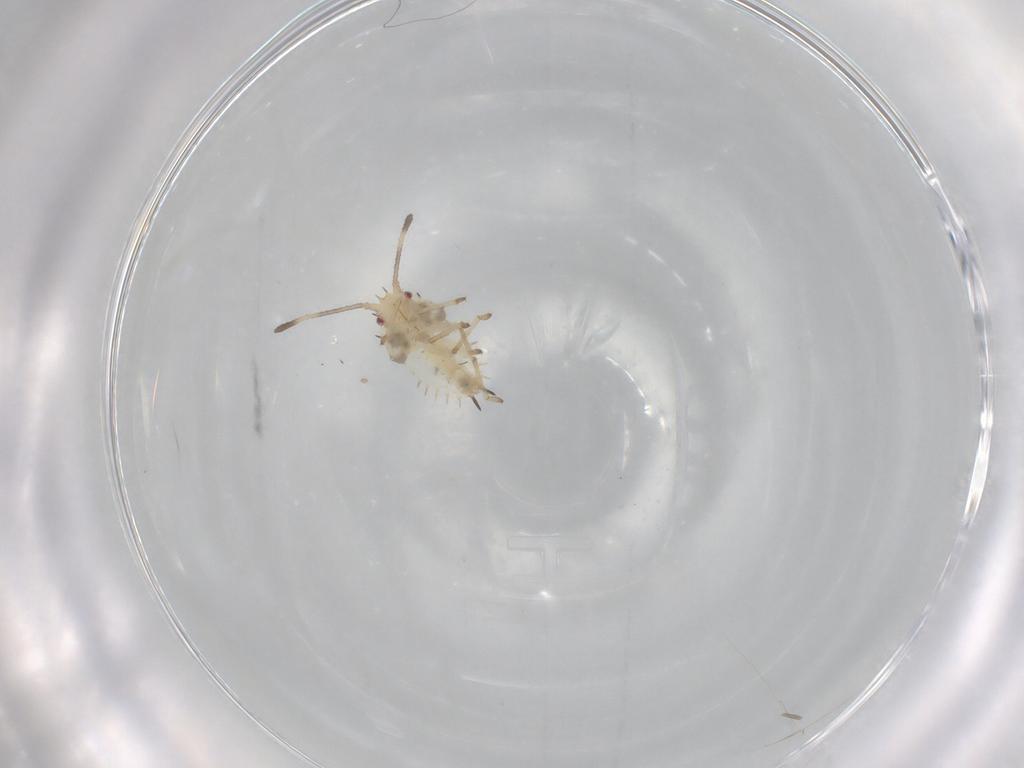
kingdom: Animalia
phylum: Arthropoda
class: Insecta
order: Hemiptera
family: Tingidae
